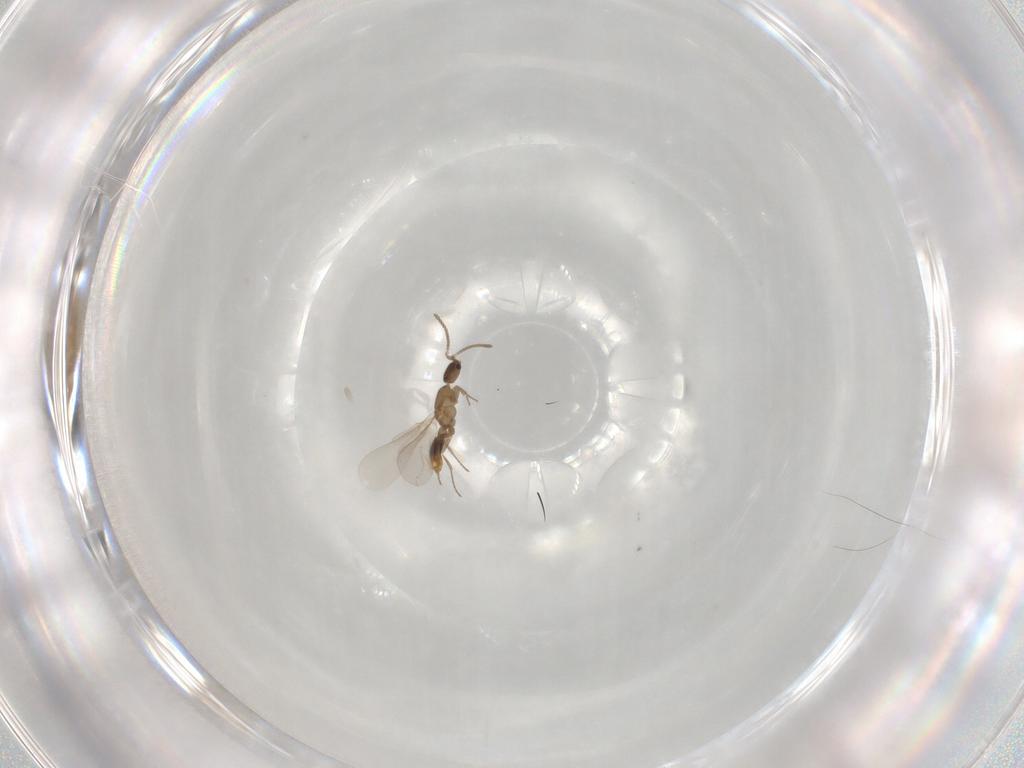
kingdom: Animalia
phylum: Arthropoda
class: Insecta
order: Hymenoptera
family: Formicidae
